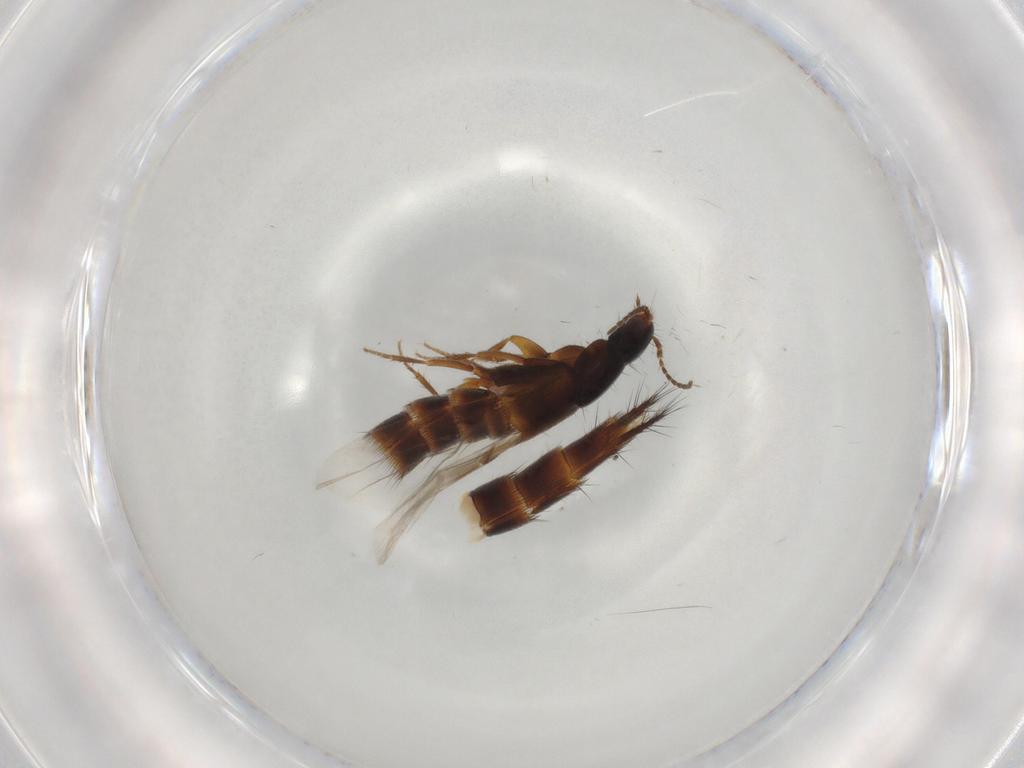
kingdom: Animalia
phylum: Arthropoda
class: Insecta
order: Coleoptera
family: Staphylinidae
